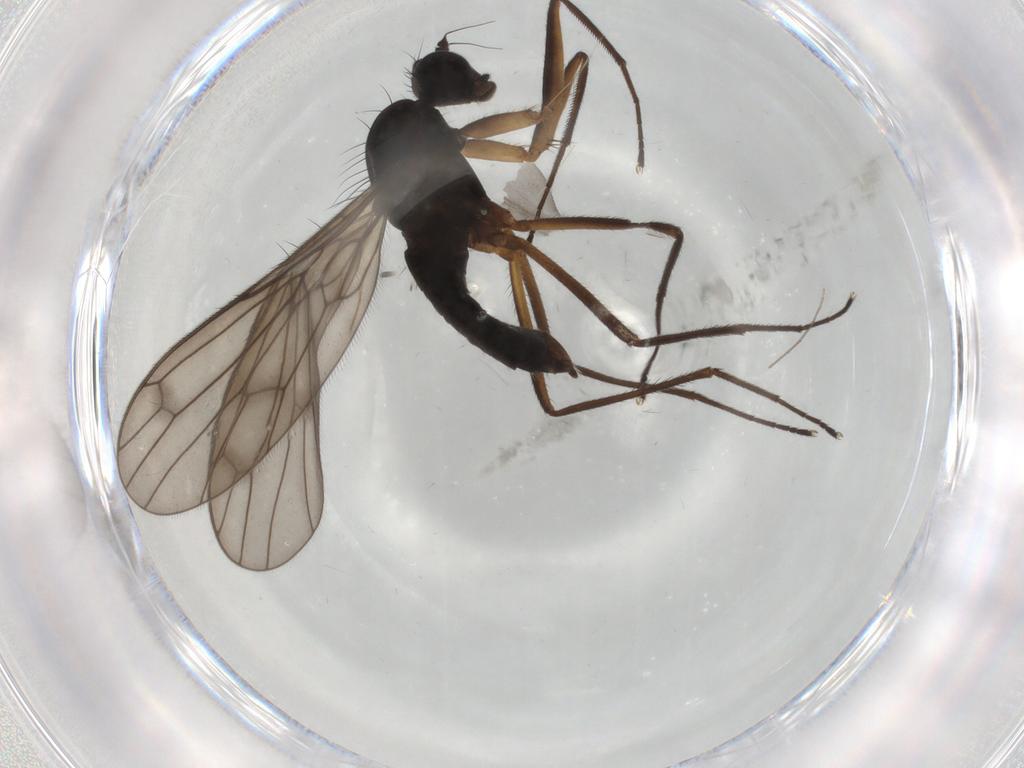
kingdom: Animalia
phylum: Arthropoda
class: Insecta
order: Diptera
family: Empididae
